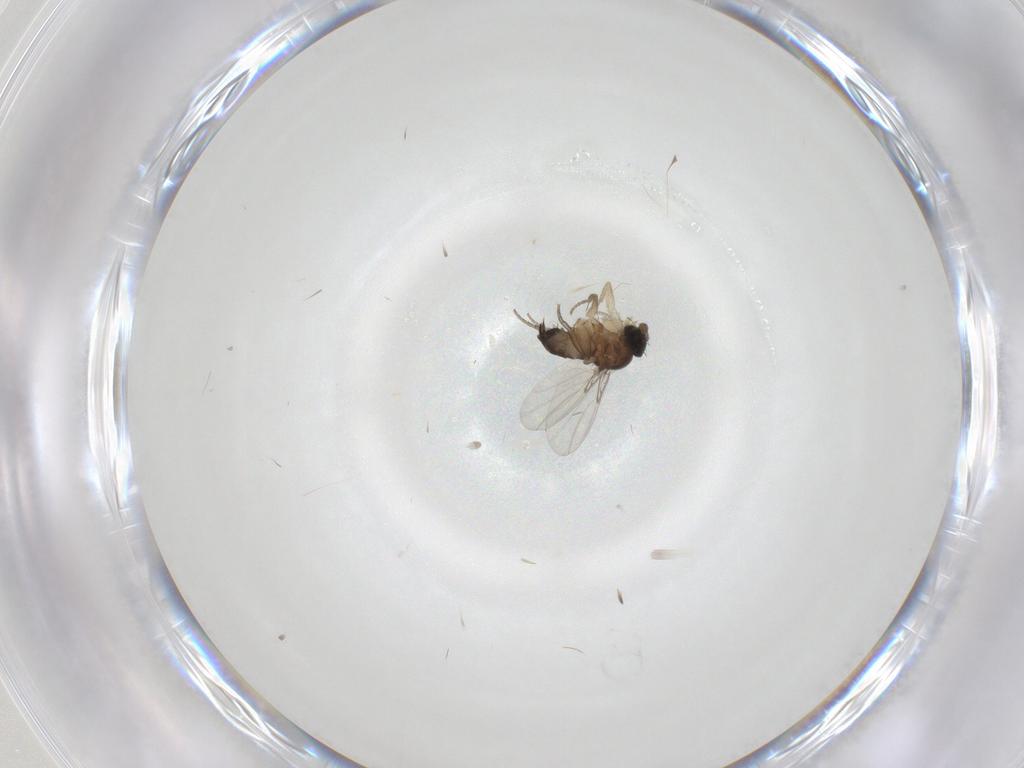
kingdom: Animalia
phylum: Arthropoda
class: Insecta
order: Diptera
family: Phoridae
